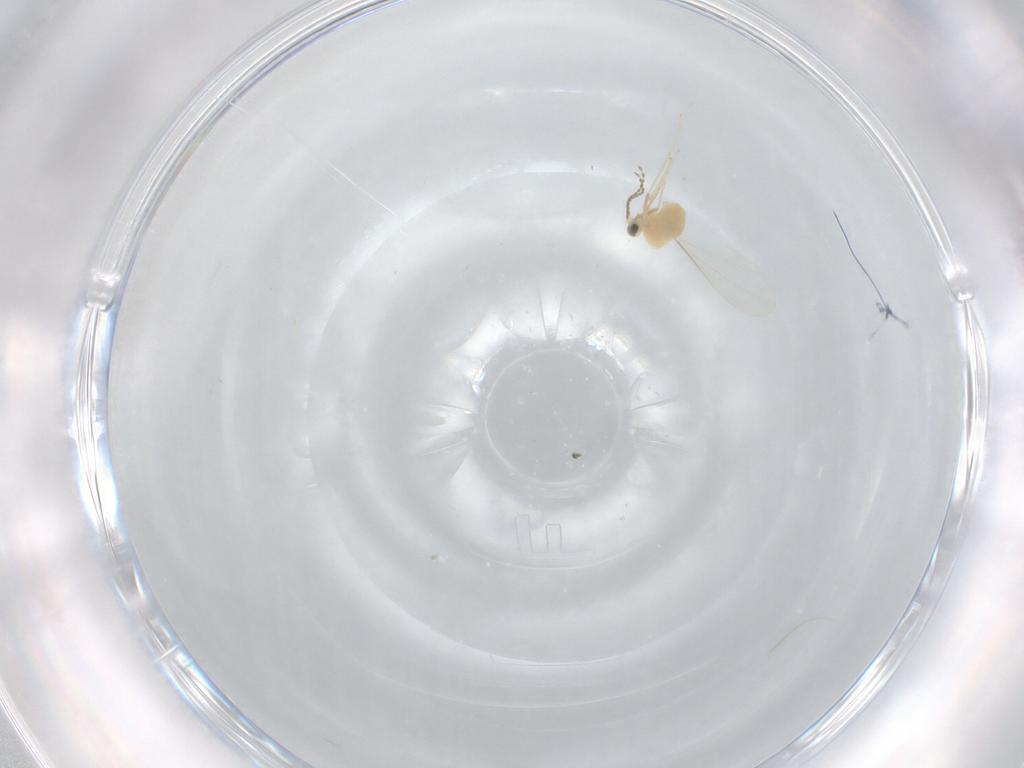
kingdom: Animalia
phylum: Arthropoda
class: Insecta
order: Diptera
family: Cecidomyiidae
